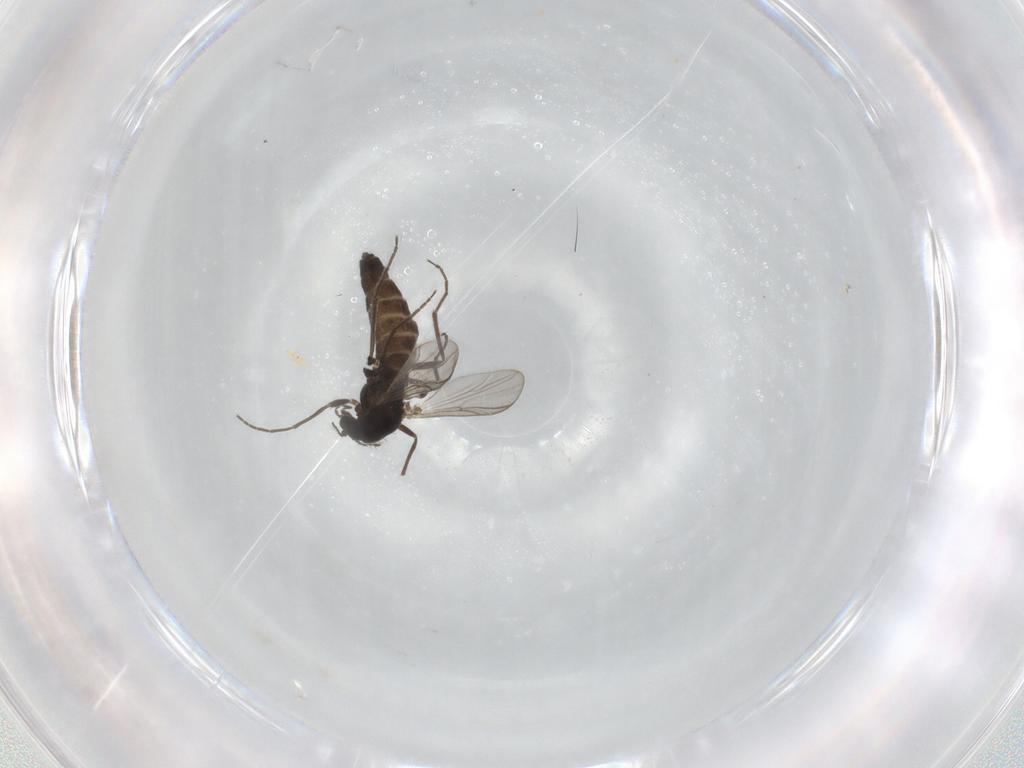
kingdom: Animalia
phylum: Arthropoda
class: Insecta
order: Diptera
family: Chironomidae
